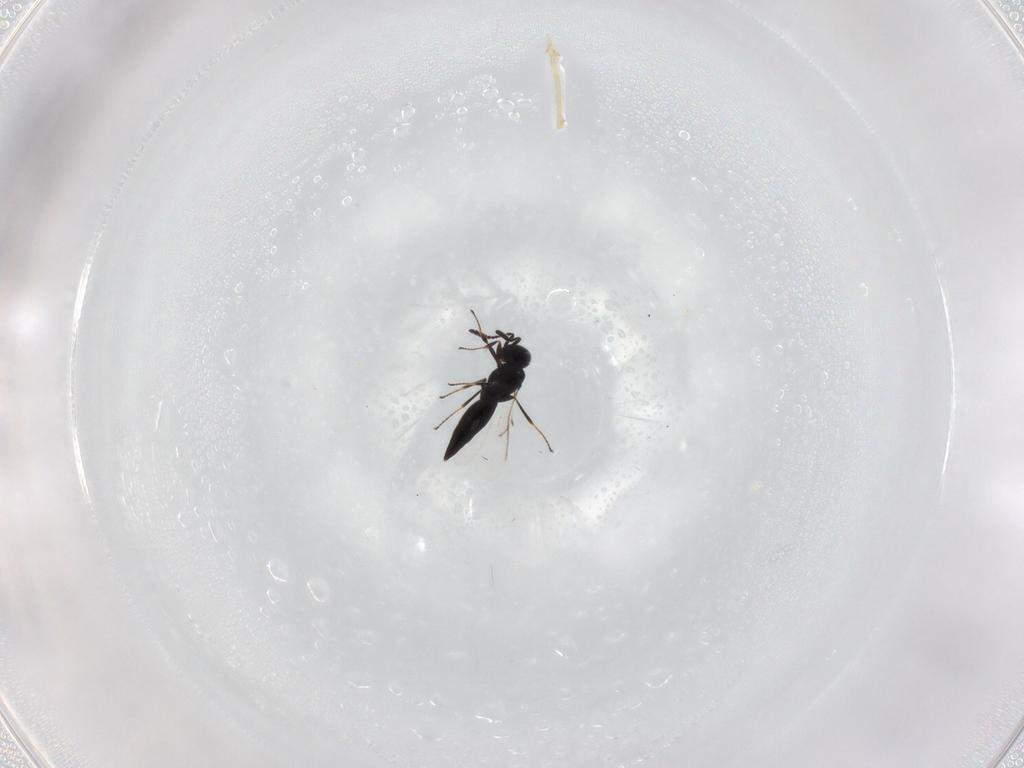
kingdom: Animalia
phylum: Arthropoda
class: Insecta
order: Hymenoptera
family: Scelionidae
